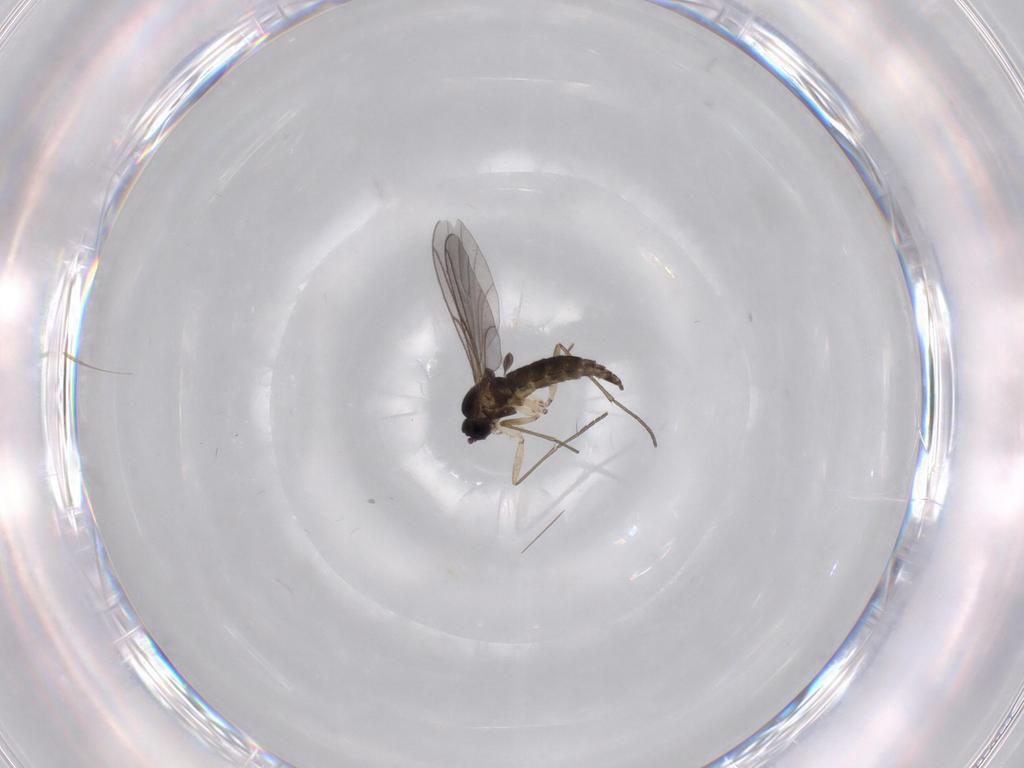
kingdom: Animalia
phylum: Arthropoda
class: Insecta
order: Diptera
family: Sciaridae
